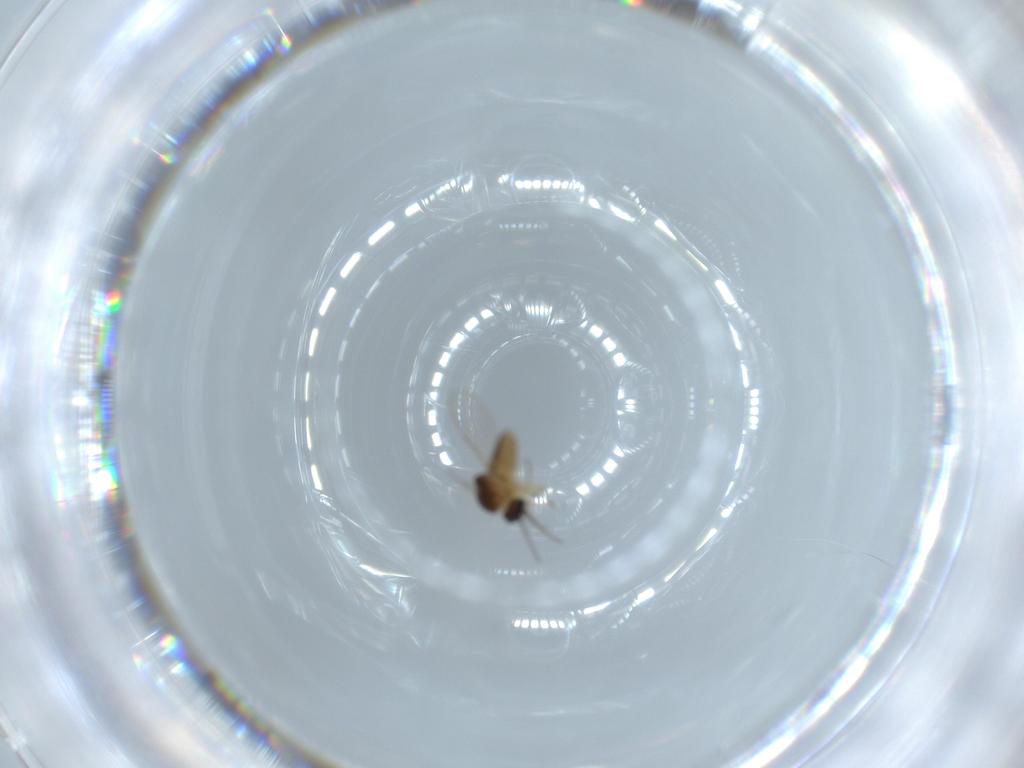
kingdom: Animalia
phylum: Arthropoda
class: Insecta
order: Diptera
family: Ceratopogonidae
